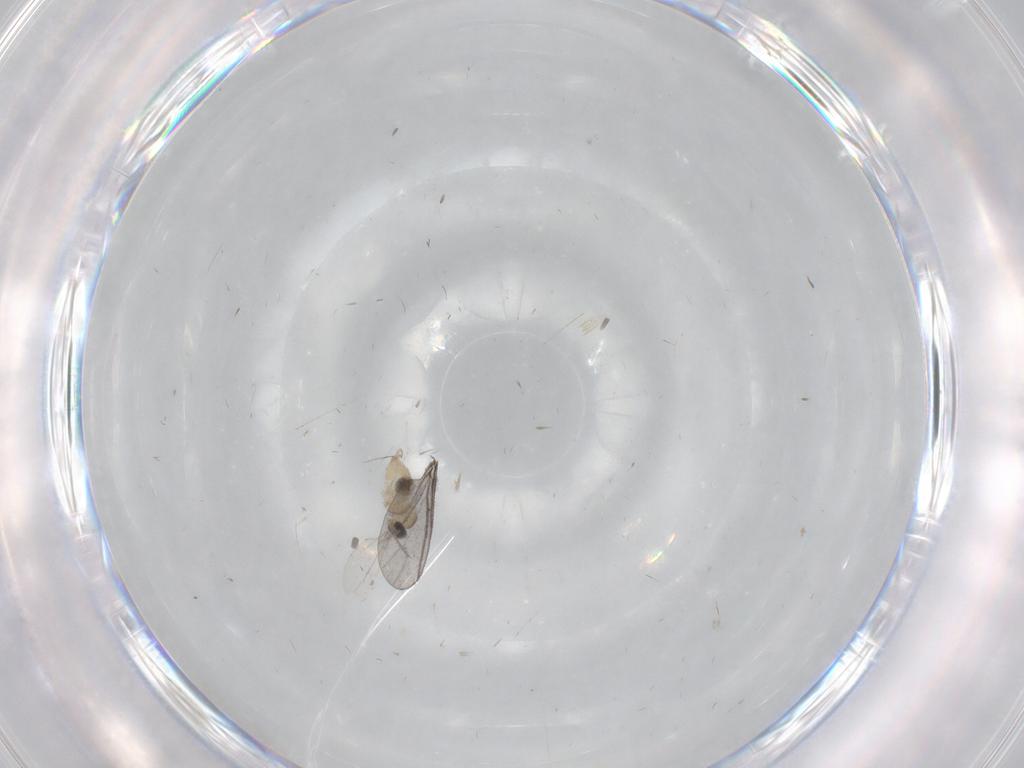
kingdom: Animalia
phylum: Arthropoda
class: Insecta
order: Diptera
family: Cecidomyiidae
